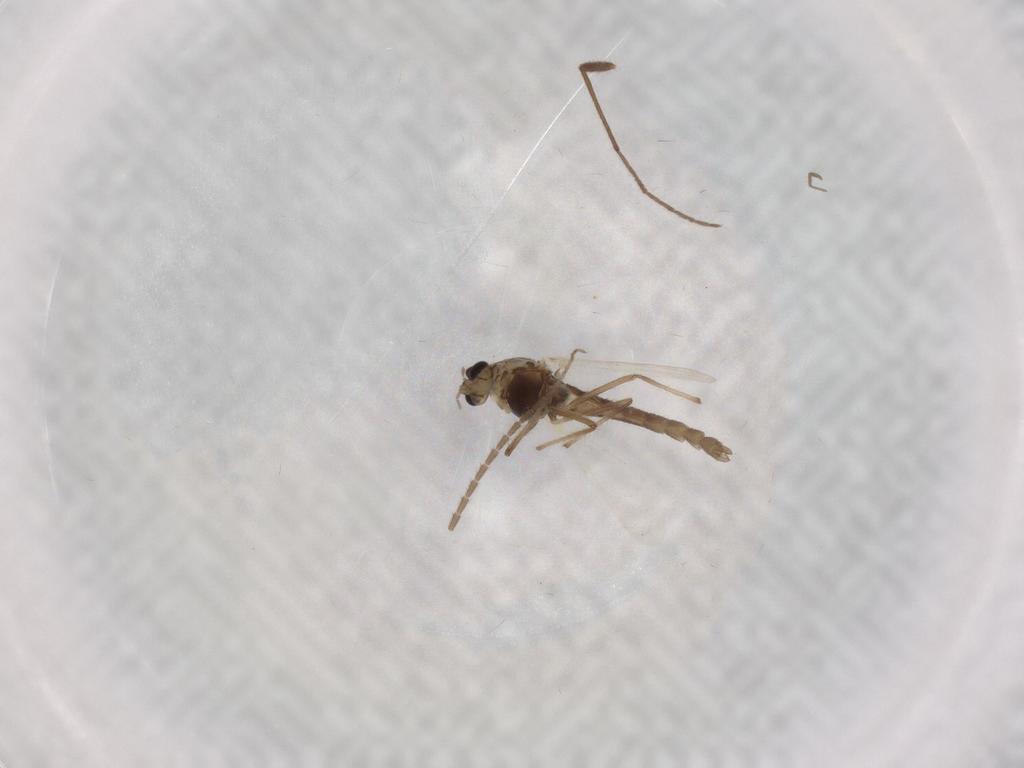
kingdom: Animalia
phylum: Arthropoda
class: Insecta
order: Diptera
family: Chironomidae
